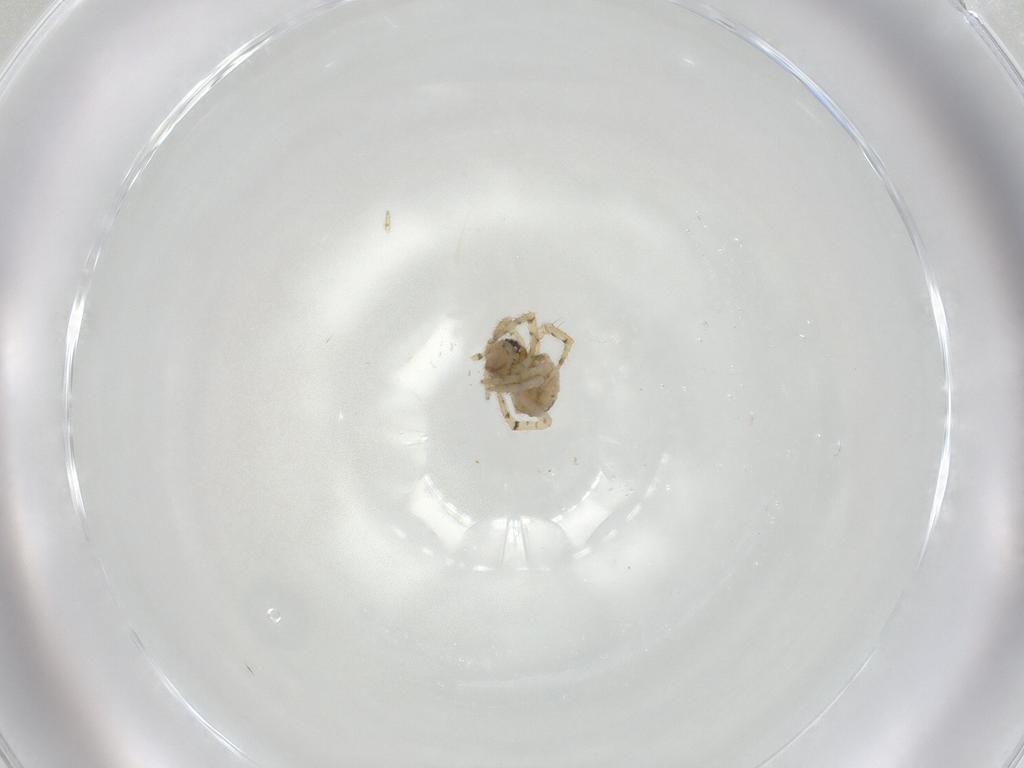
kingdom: Animalia
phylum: Arthropoda
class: Arachnida
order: Araneae
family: Theridiidae
